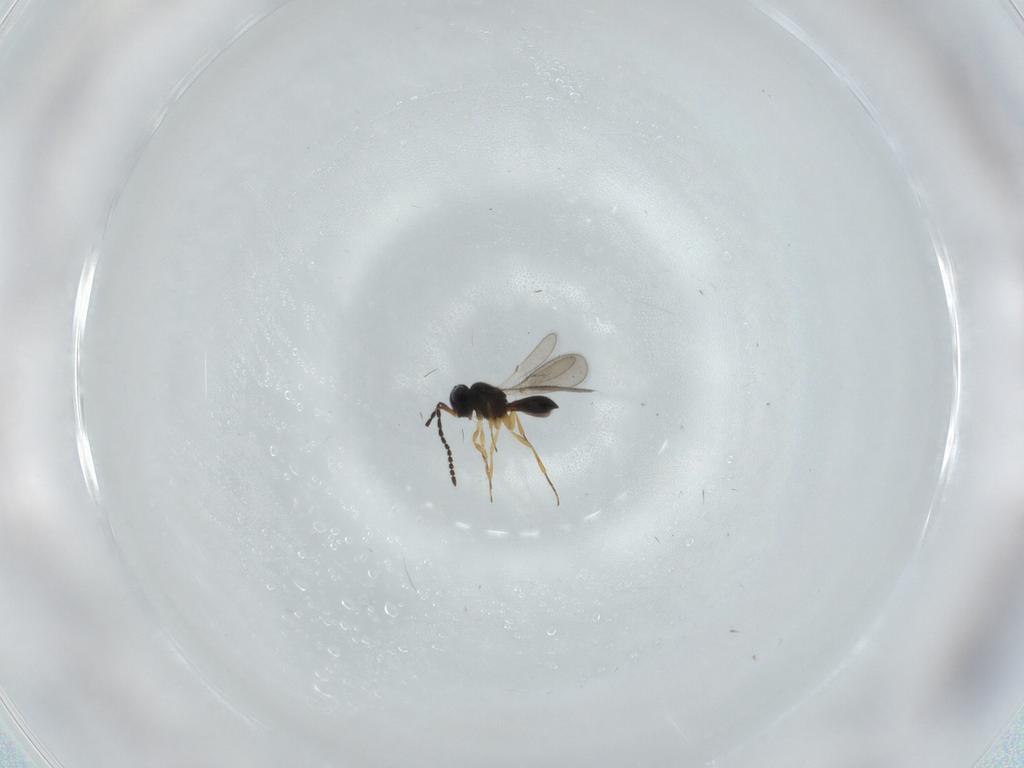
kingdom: Animalia
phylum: Arthropoda
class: Insecta
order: Hymenoptera
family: Scelionidae
